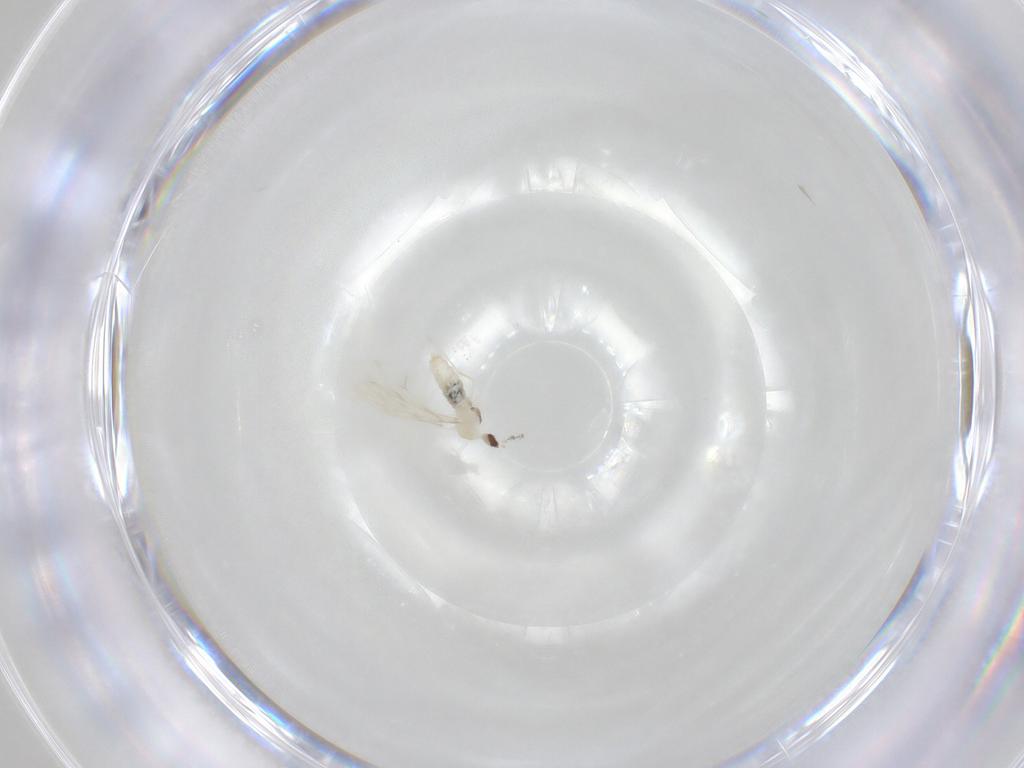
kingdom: Animalia
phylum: Arthropoda
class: Insecta
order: Diptera
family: Cecidomyiidae
